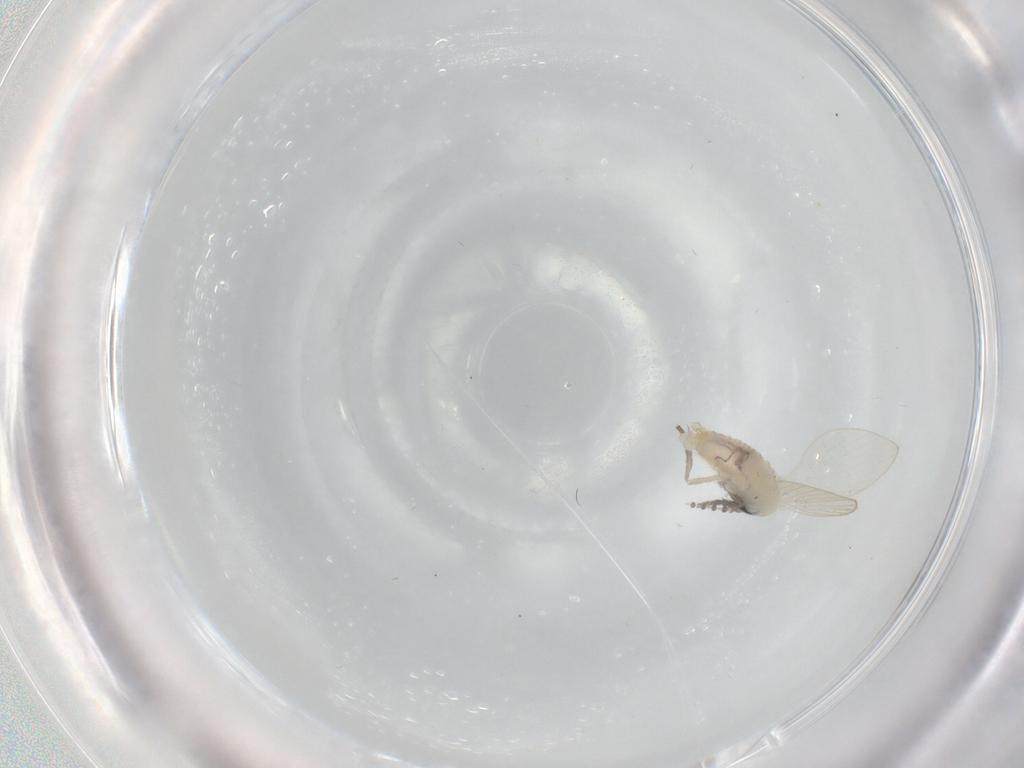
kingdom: Animalia
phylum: Arthropoda
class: Insecta
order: Diptera
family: Psychodidae
